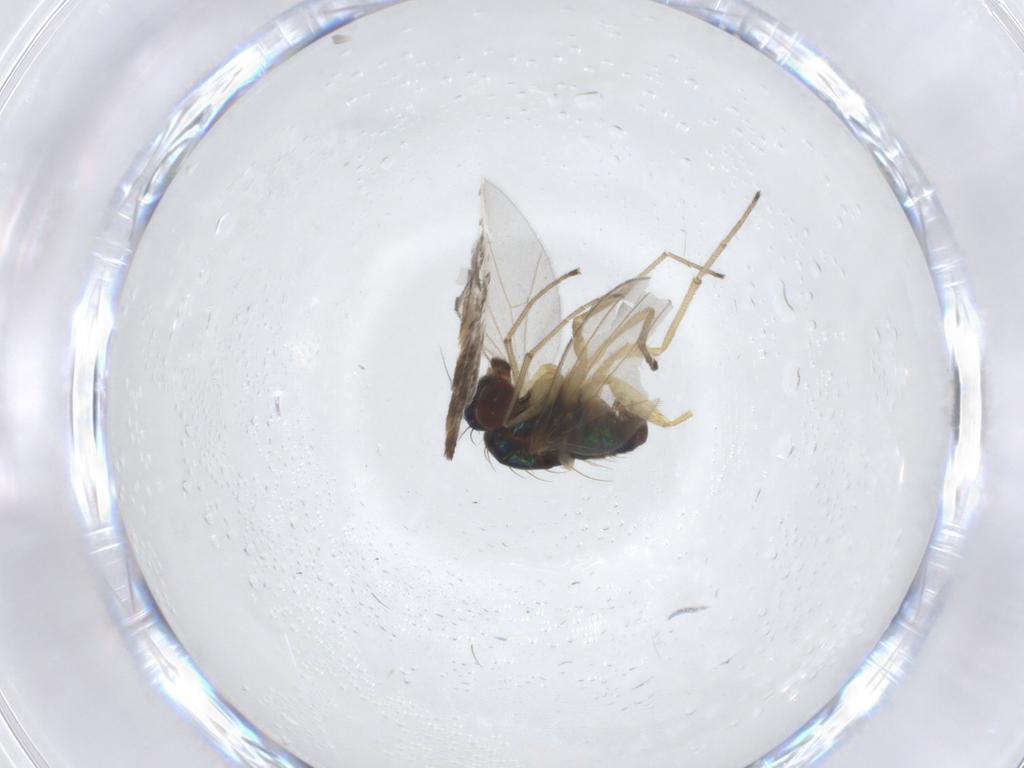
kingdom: Animalia
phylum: Arthropoda
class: Insecta
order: Diptera
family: Dolichopodidae
